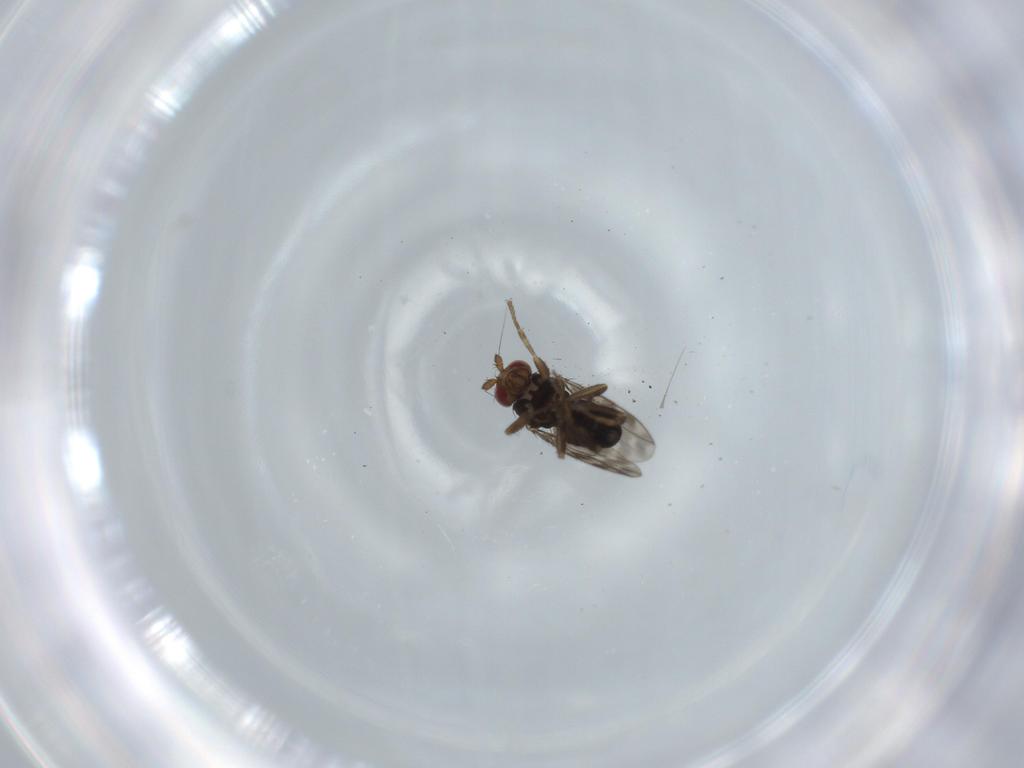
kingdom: Animalia
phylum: Arthropoda
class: Insecta
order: Diptera
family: Sphaeroceridae
